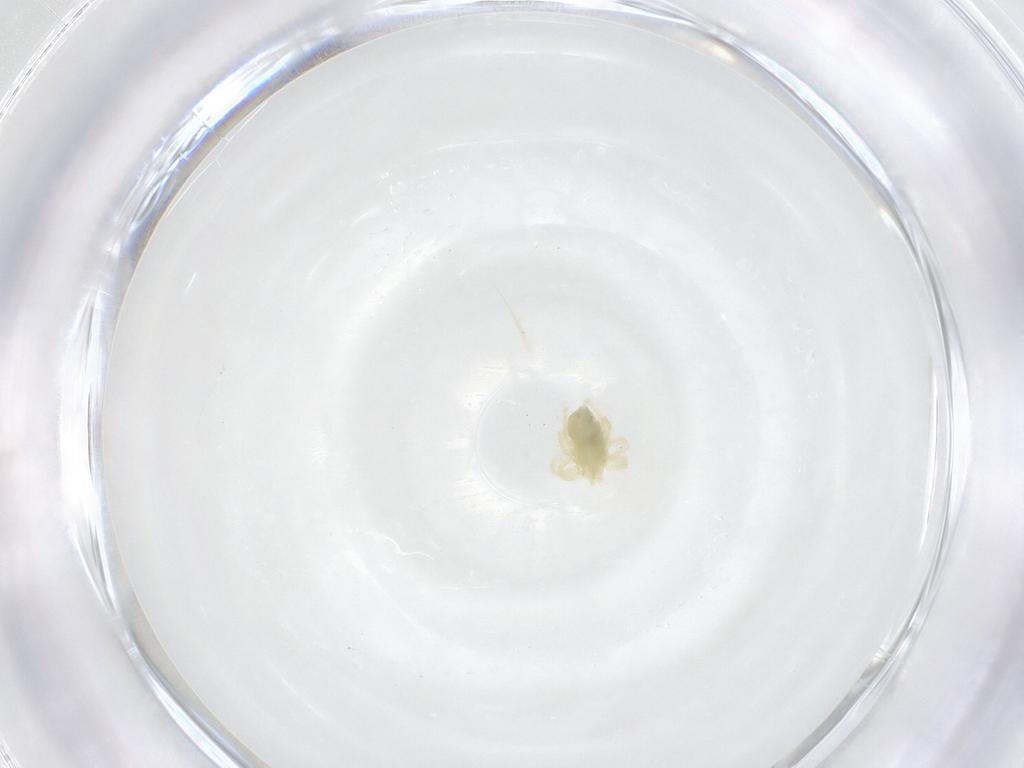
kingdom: Animalia
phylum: Arthropoda
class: Arachnida
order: Trombidiformes
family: Anystidae
